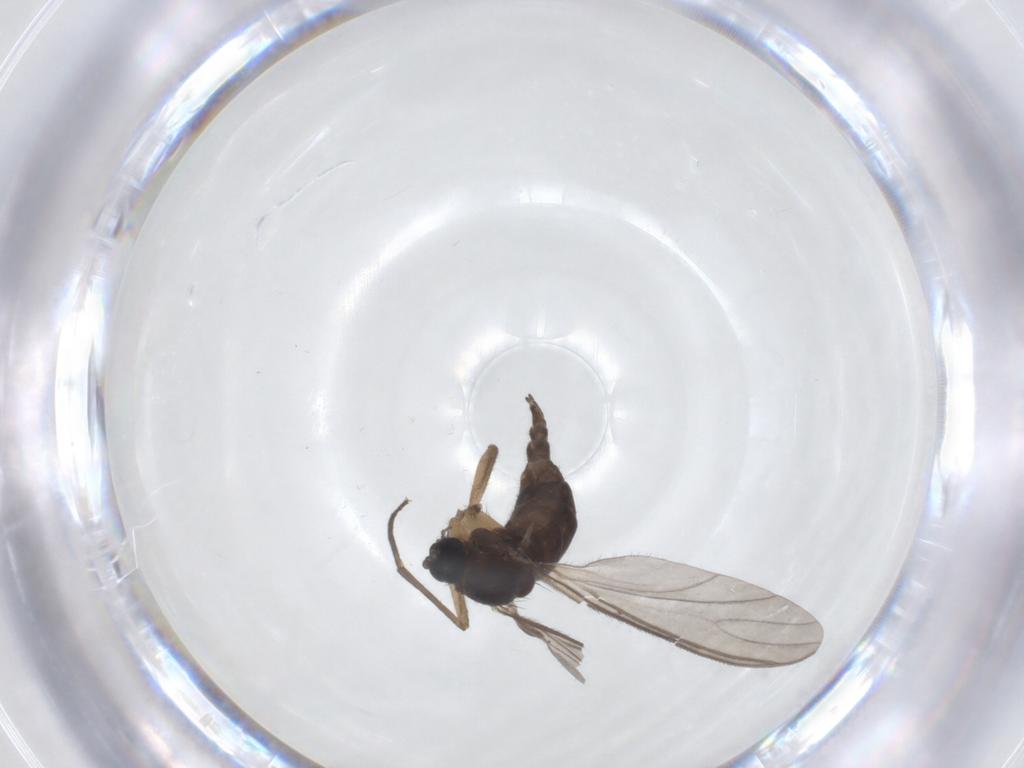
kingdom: Animalia
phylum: Arthropoda
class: Insecta
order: Diptera
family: Sciaridae
